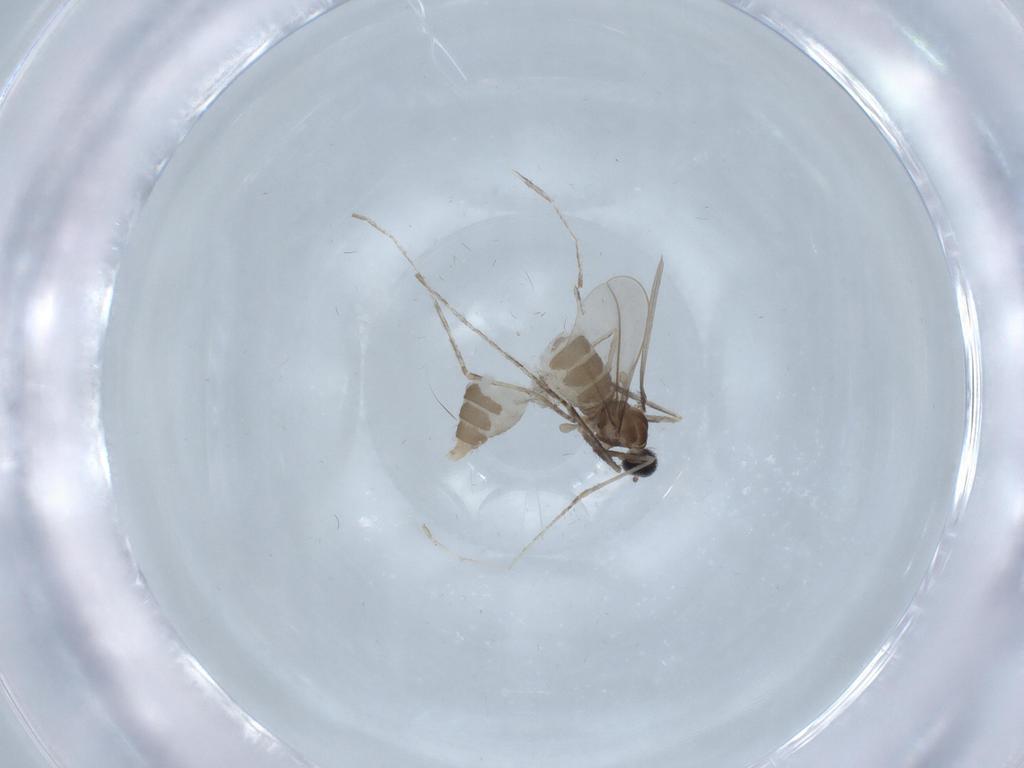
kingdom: Animalia
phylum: Arthropoda
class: Insecta
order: Diptera
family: Cecidomyiidae
